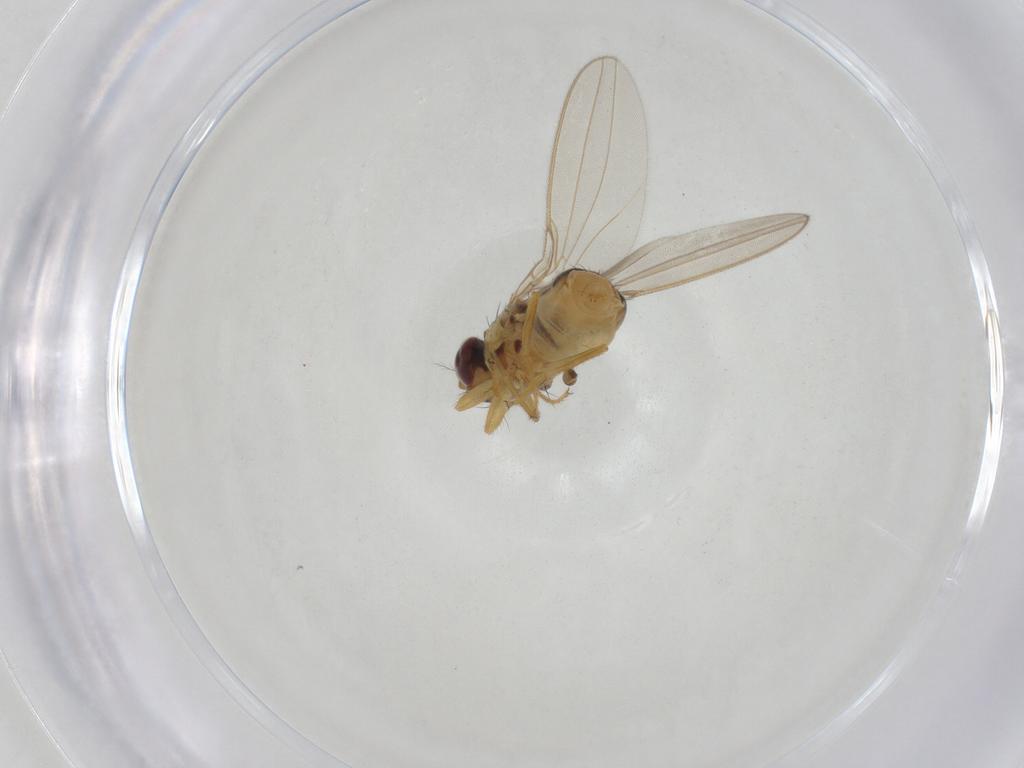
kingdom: Animalia
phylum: Arthropoda
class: Insecta
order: Diptera
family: Asteiidae
